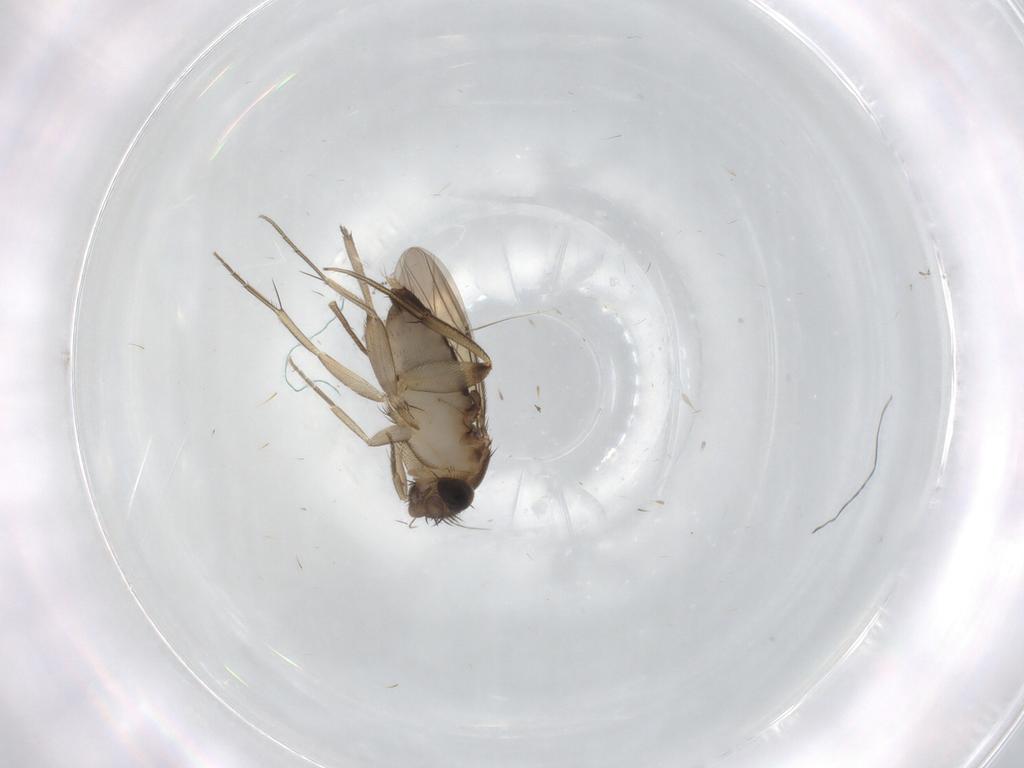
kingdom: Animalia
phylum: Arthropoda
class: Insecta
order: Diptera
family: Phoridae
